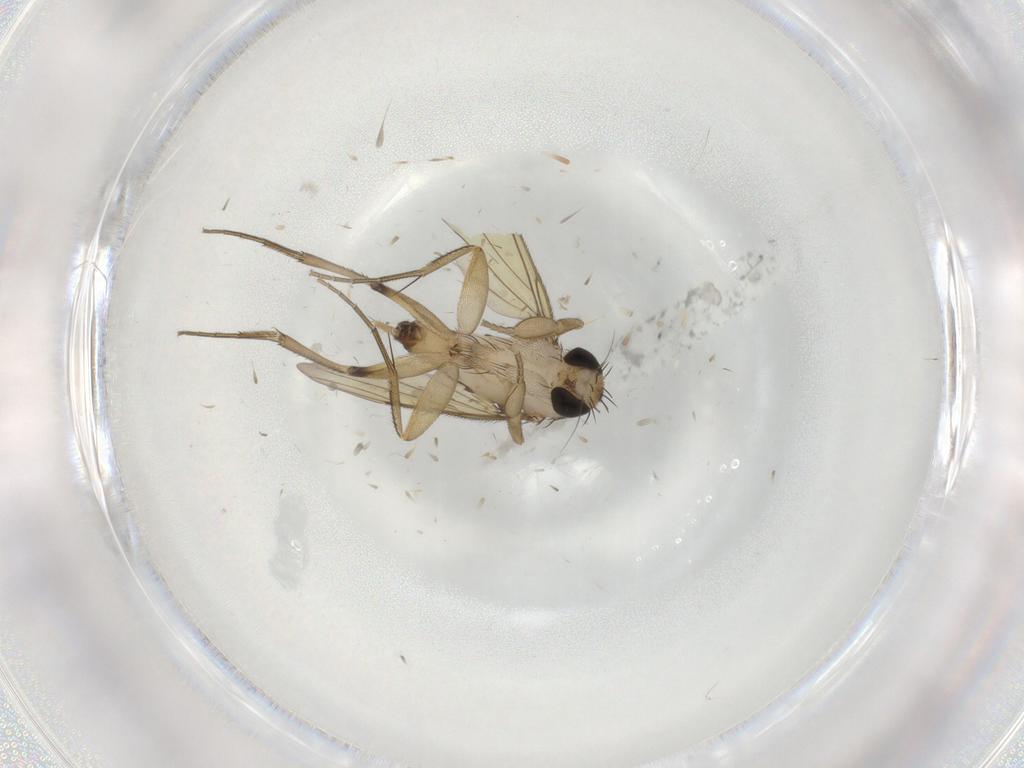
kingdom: Animalia
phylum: Arthropoda
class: Insecta
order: Diptera
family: Phoridae
